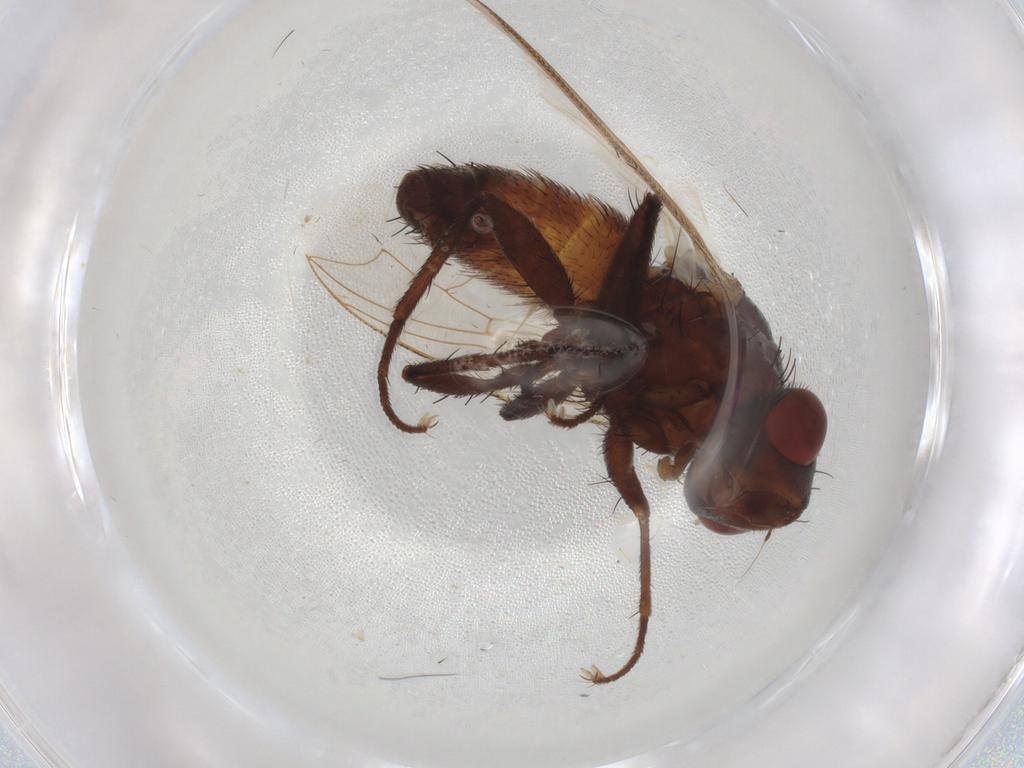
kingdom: Animalia
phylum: Arthropoda
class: Insecta
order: Diptera
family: Sarcophagidae
